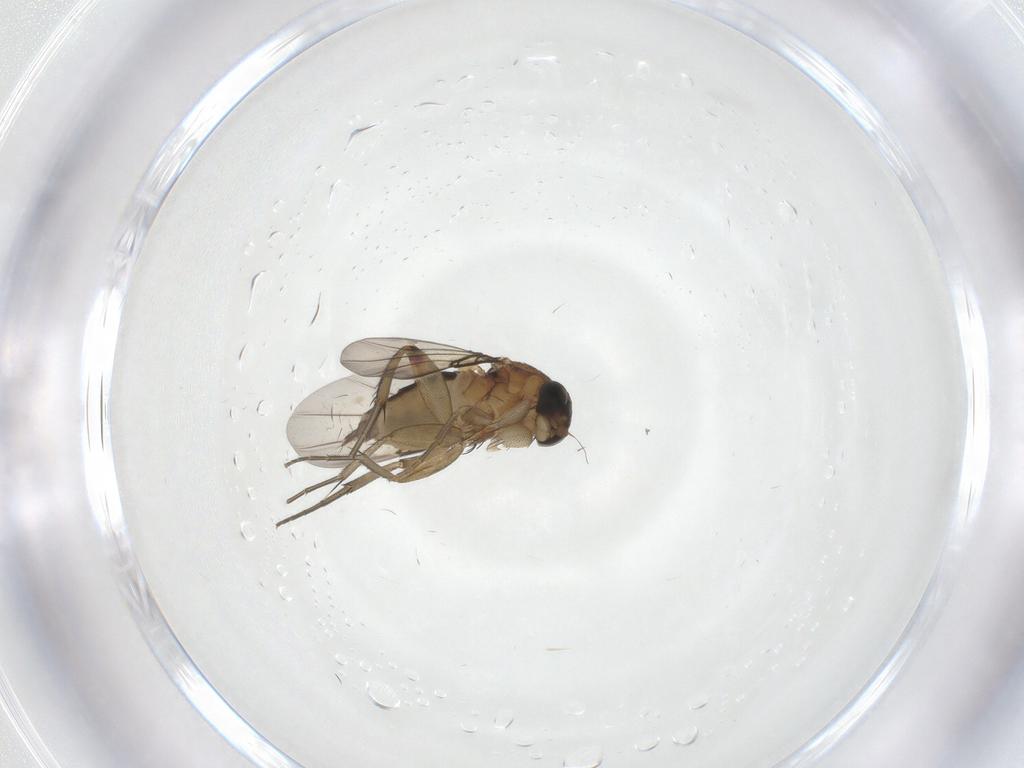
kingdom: Animalia
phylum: Arthropoda
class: Insecta
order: Diptera
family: Phoridae
